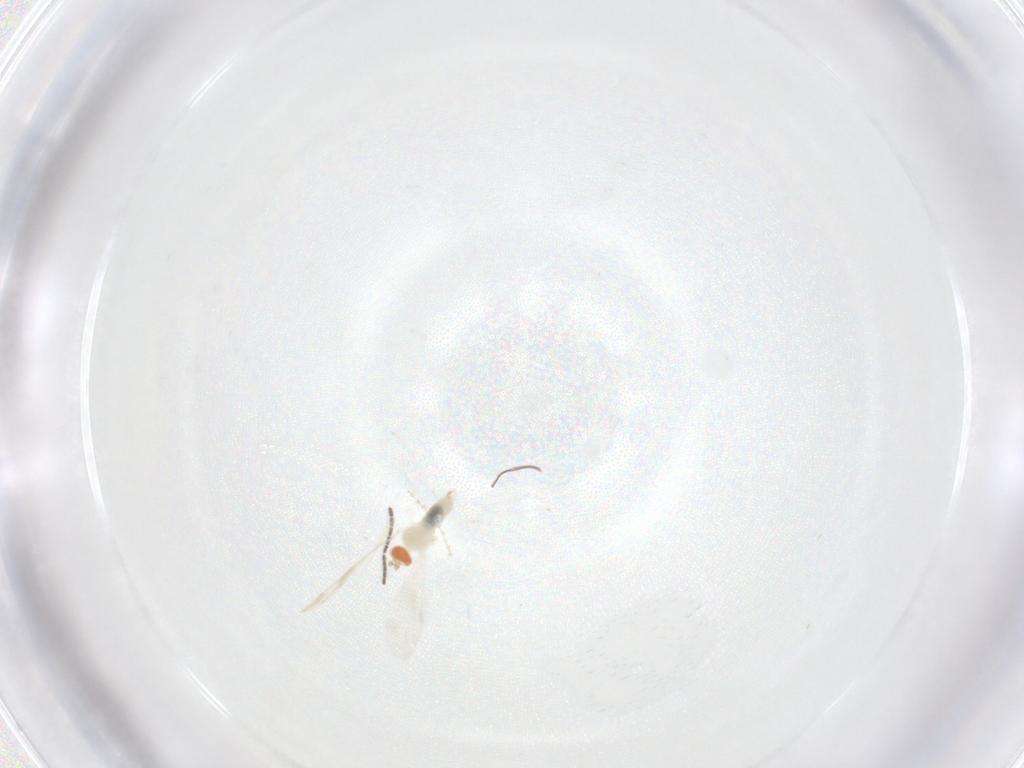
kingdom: Animalia
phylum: Arthropoda
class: Insecta
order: Diptera
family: Cecidomyiidae
